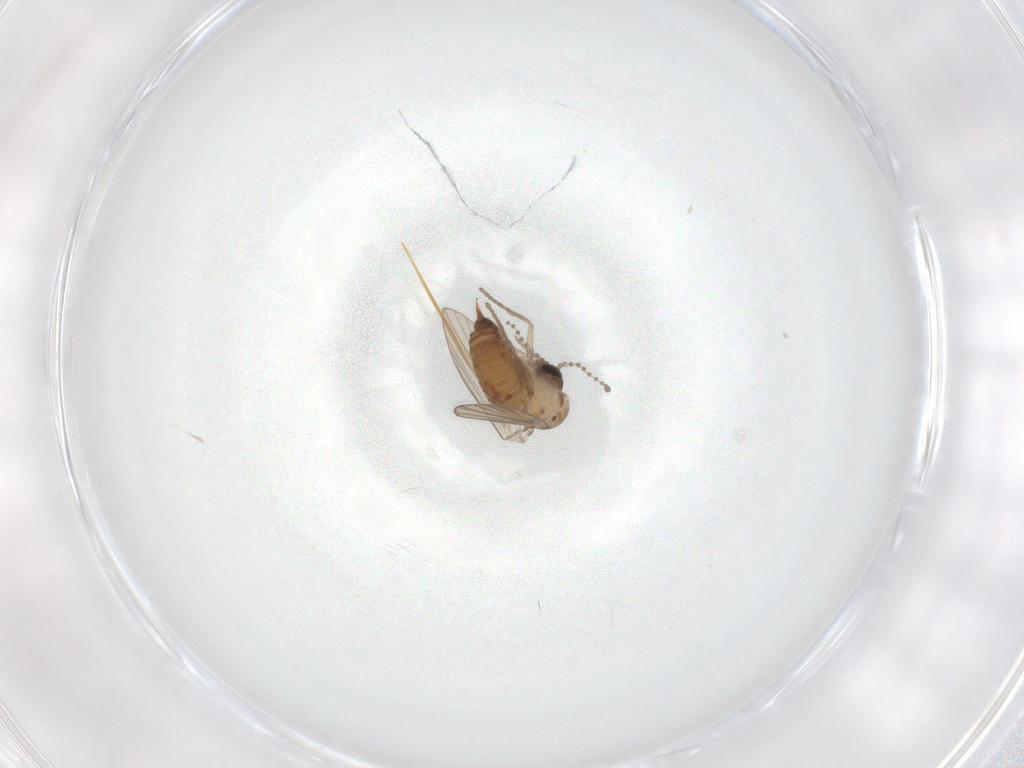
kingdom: Animalia
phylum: Arthropoda
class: Insecta
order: Diptera
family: Psychodidae
